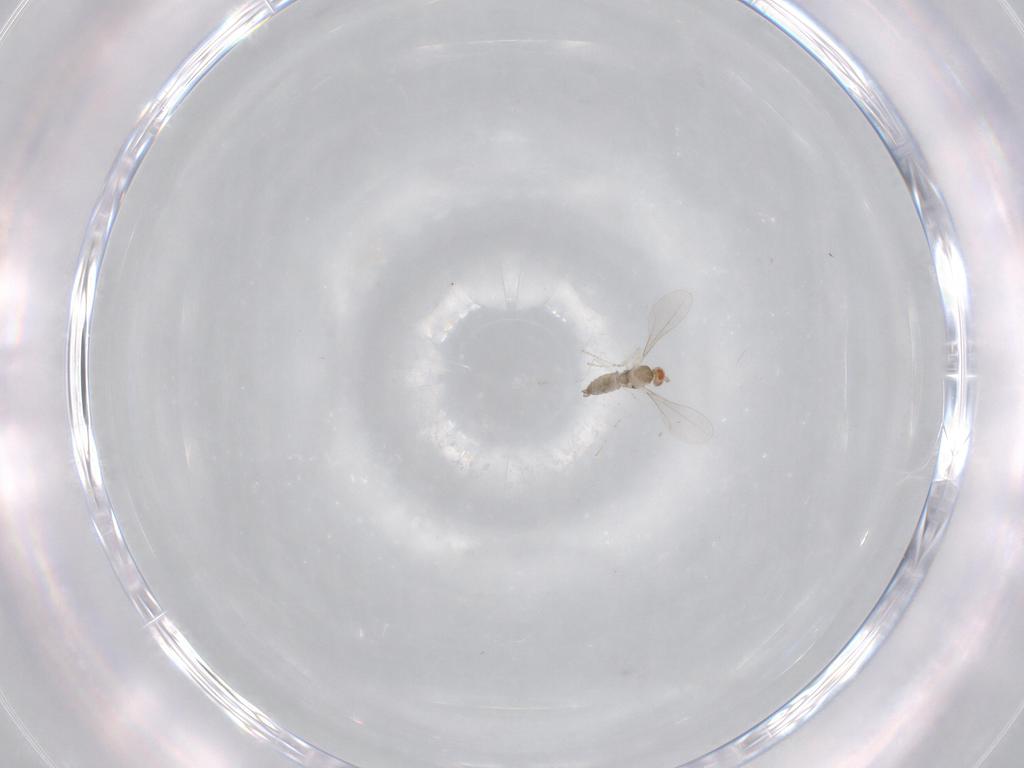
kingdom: Animalia
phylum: Arthropoda
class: Insecta
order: Diptera
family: Cecidomyiidae
